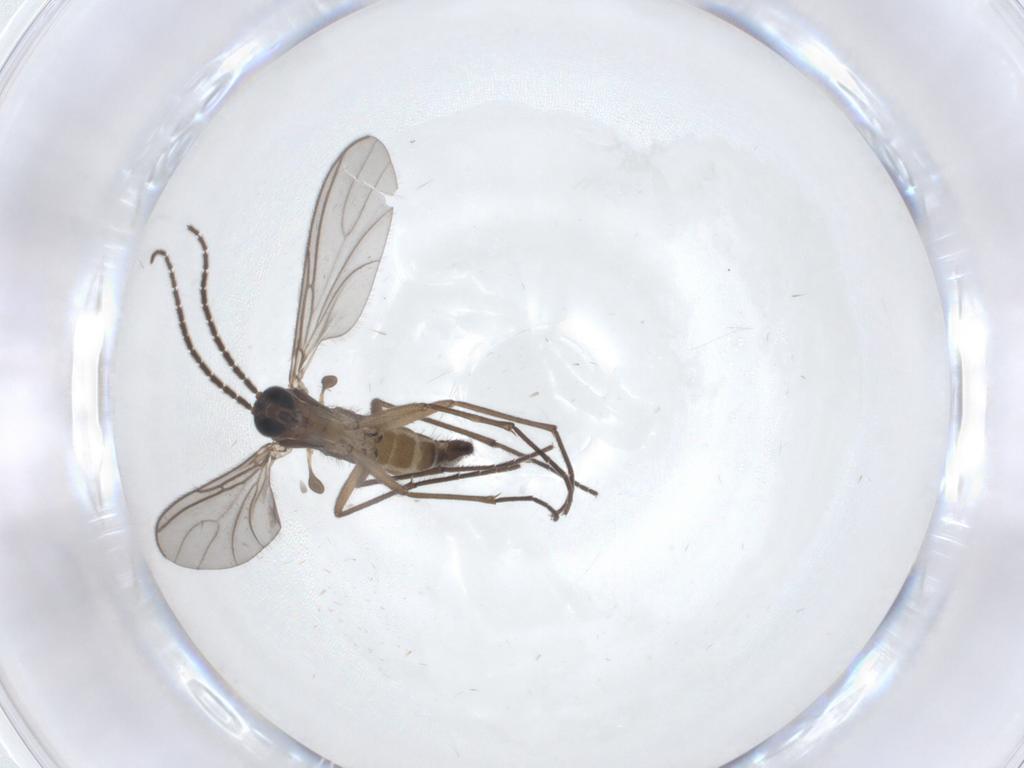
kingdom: Animalia
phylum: Arthropoda
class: Insecta
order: Diptera
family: Sciaridae
